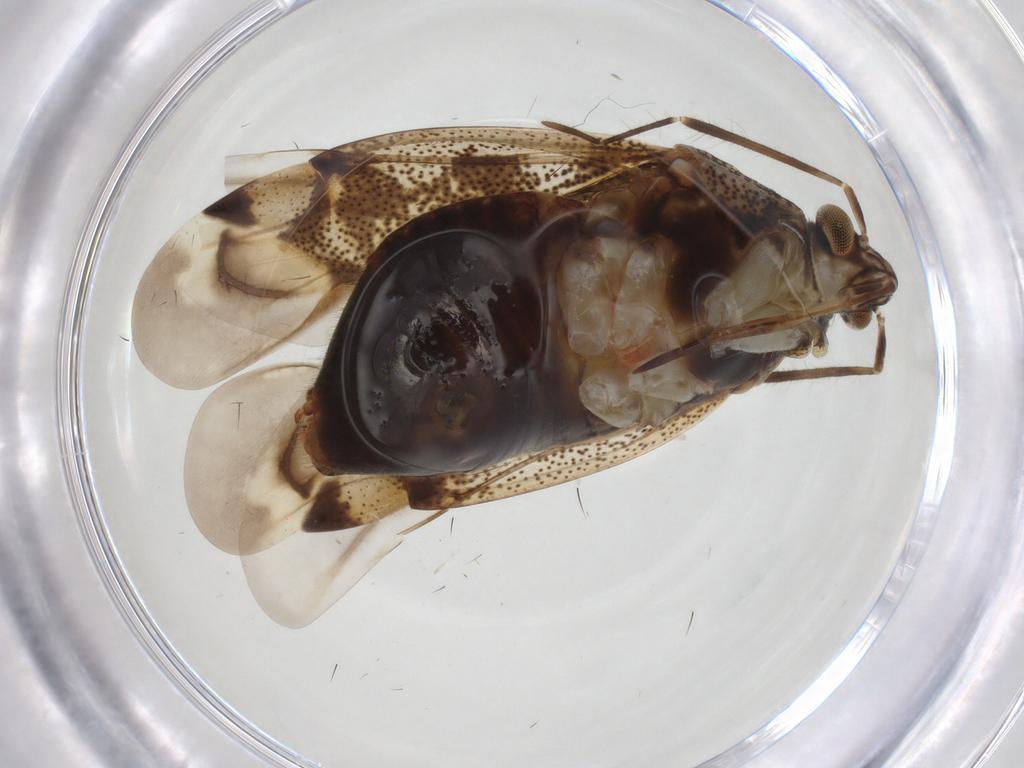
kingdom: Animalia
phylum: Arthropoda
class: Insecta
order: Hemiptera
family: Miridae
